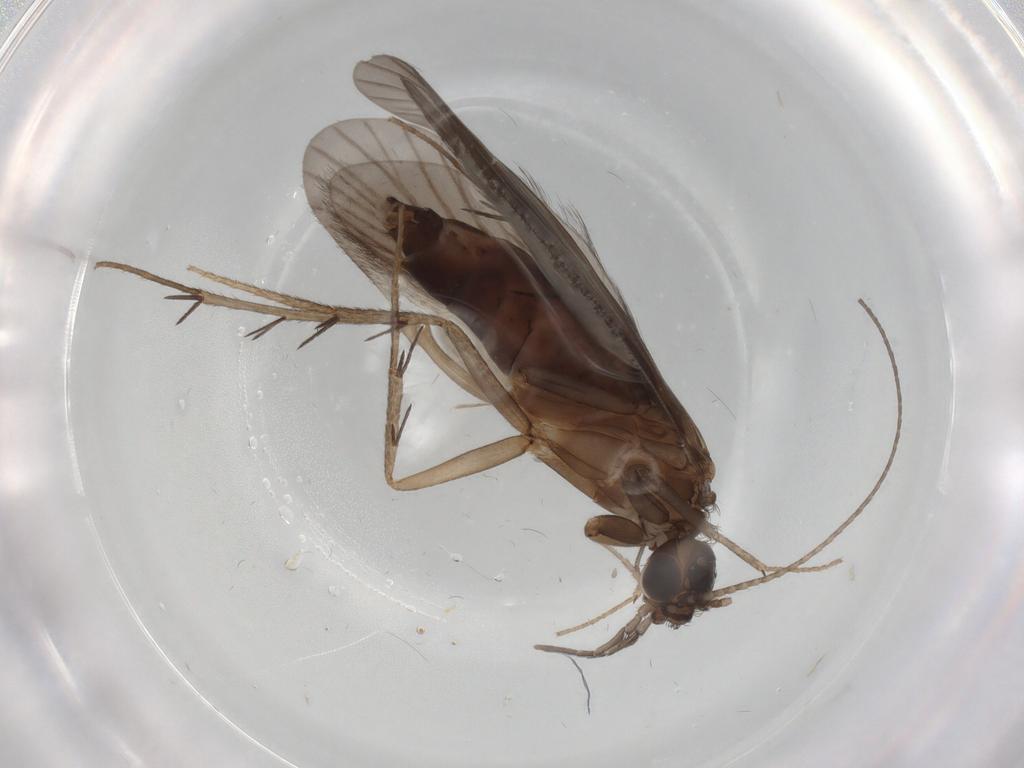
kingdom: Animalia
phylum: Arthropoda
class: Insecta
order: Trichoptera
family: Philopotamidae
